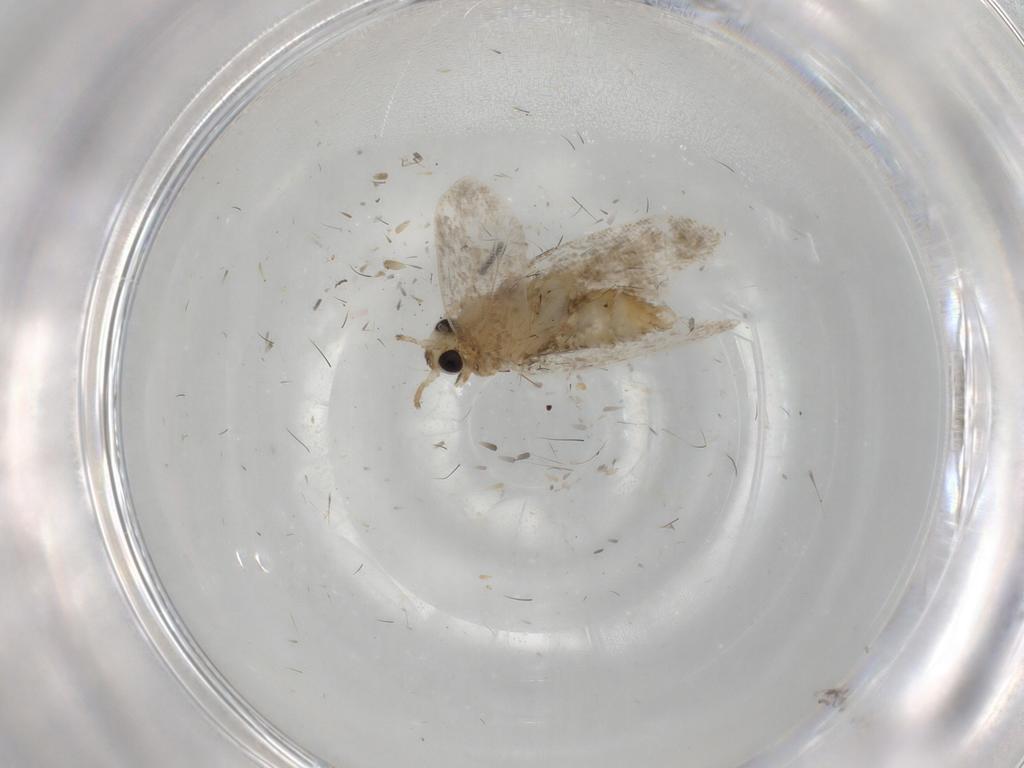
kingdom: Animalia
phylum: Arthropoda
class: Insecta
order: Lepidoptera
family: Psychidae
